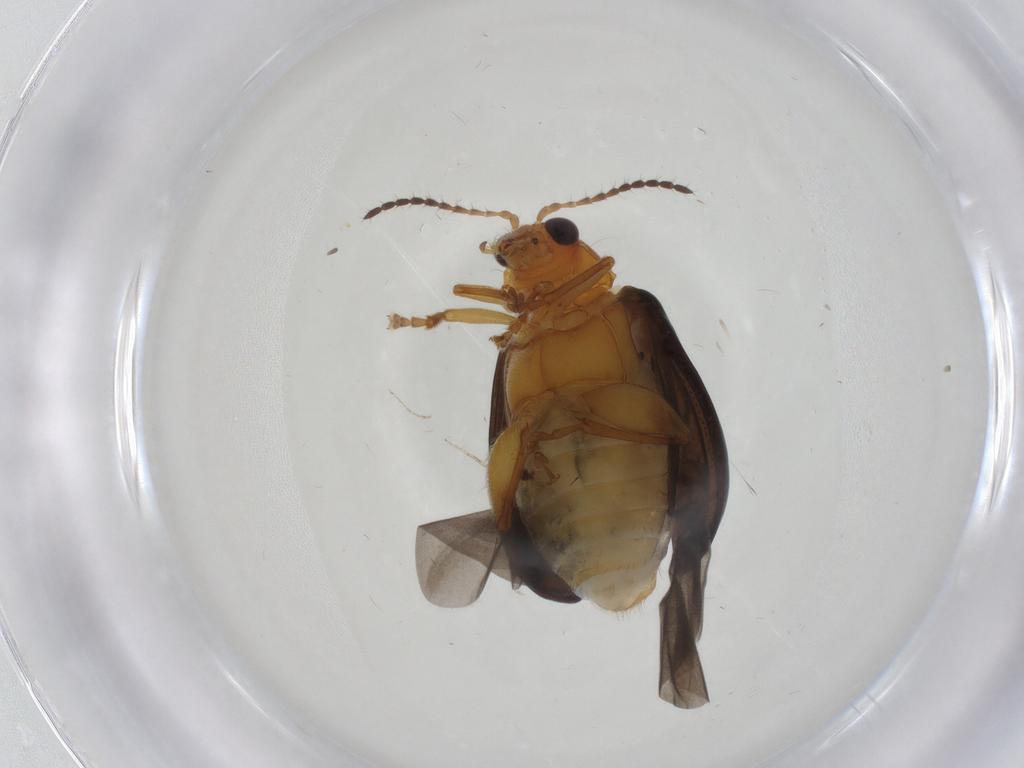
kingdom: Animalia
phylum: Arthropoda
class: Insecta
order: Coleoptera
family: Chrysomelidae
